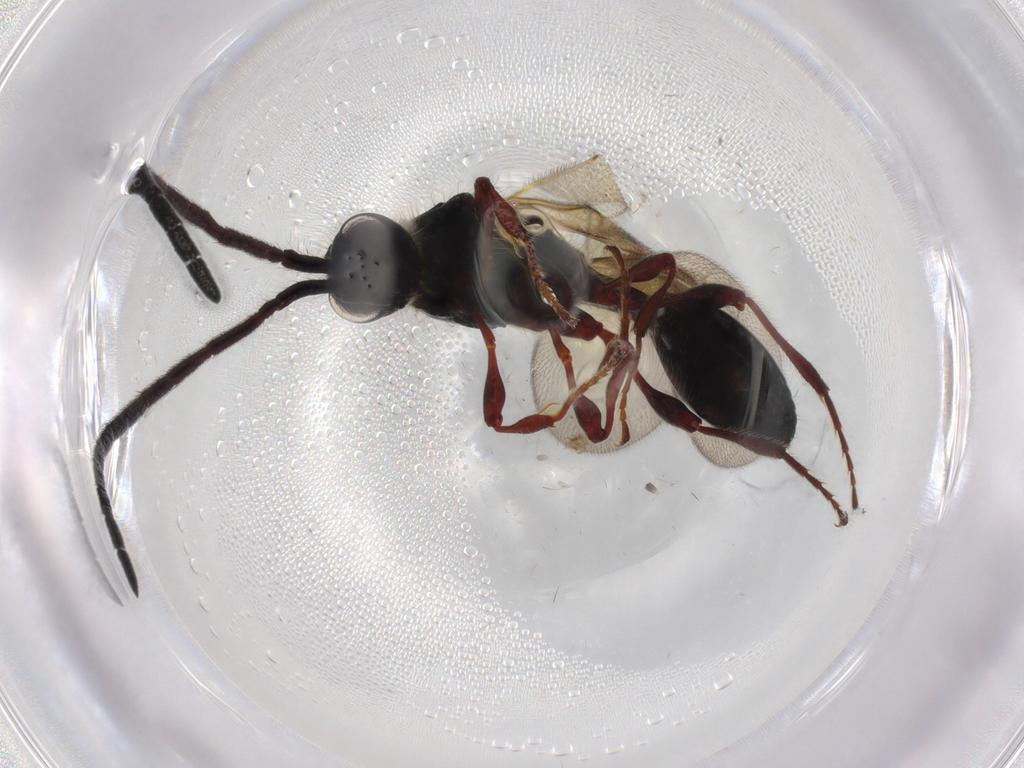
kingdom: Animalia
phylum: Arthropoda
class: Insecta
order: Hymenoptera
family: Diapriidae
